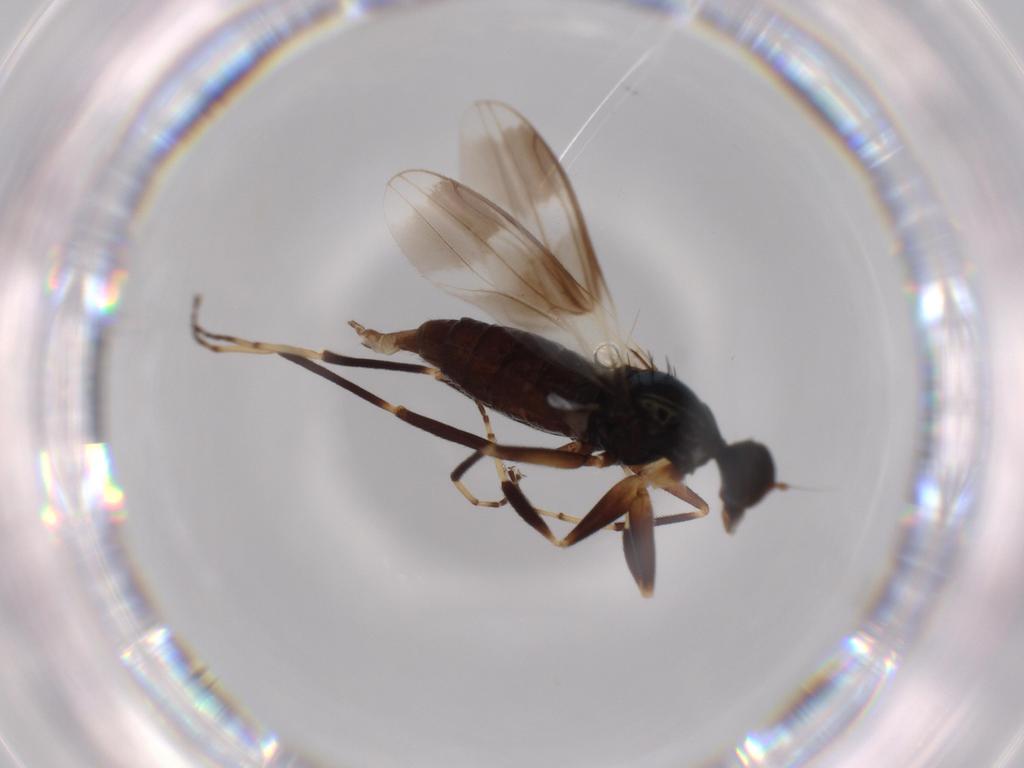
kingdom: Animalia
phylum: Arthropoda
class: Insecta
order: Diptera
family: Hybotidae
